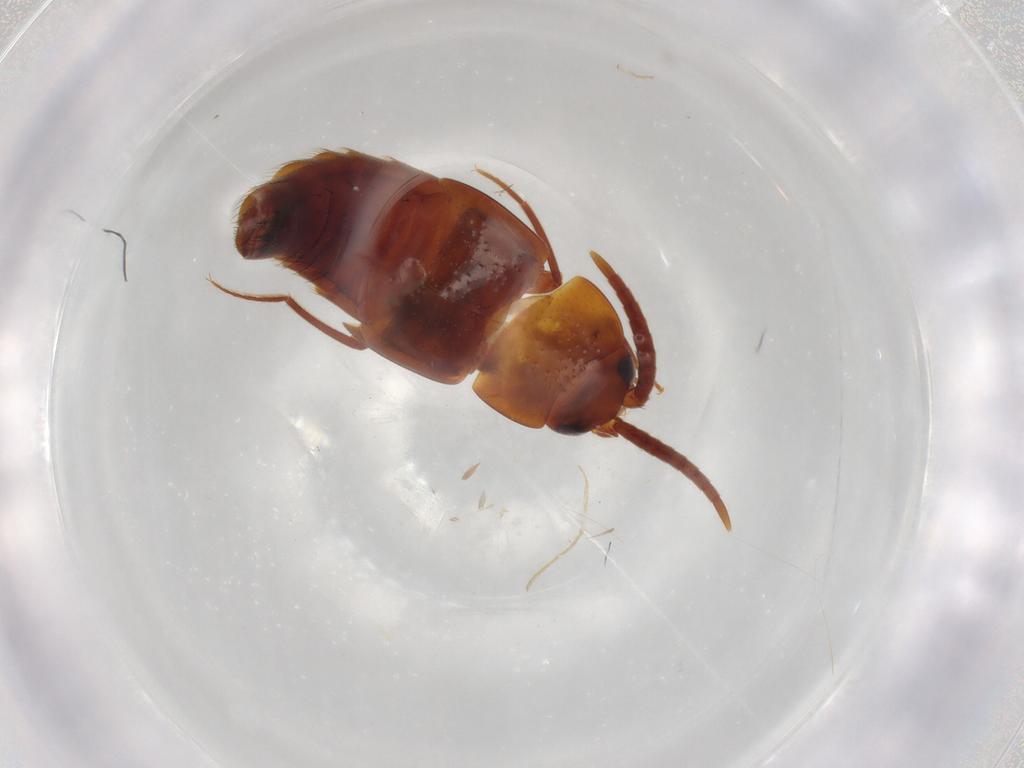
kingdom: Animalia
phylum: Arthropoda
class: Insecta
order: Coleoptera
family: Staphylinidae
